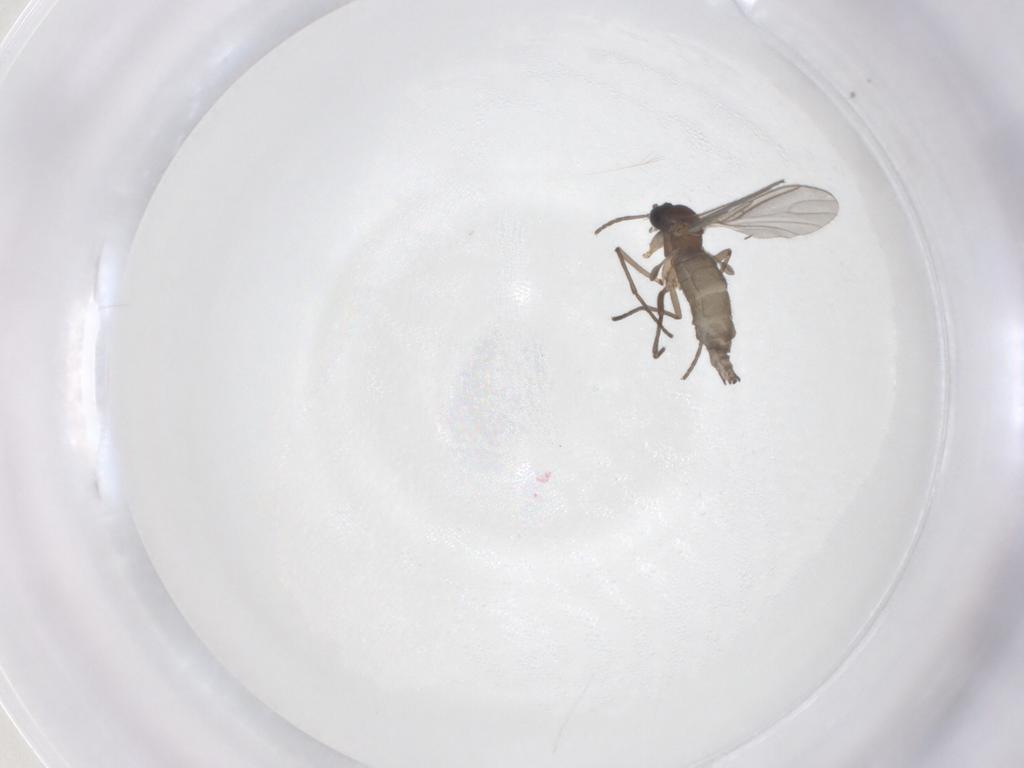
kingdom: Animalia
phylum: Arthropoda
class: Insecta
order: Diptera
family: Sciaridae
